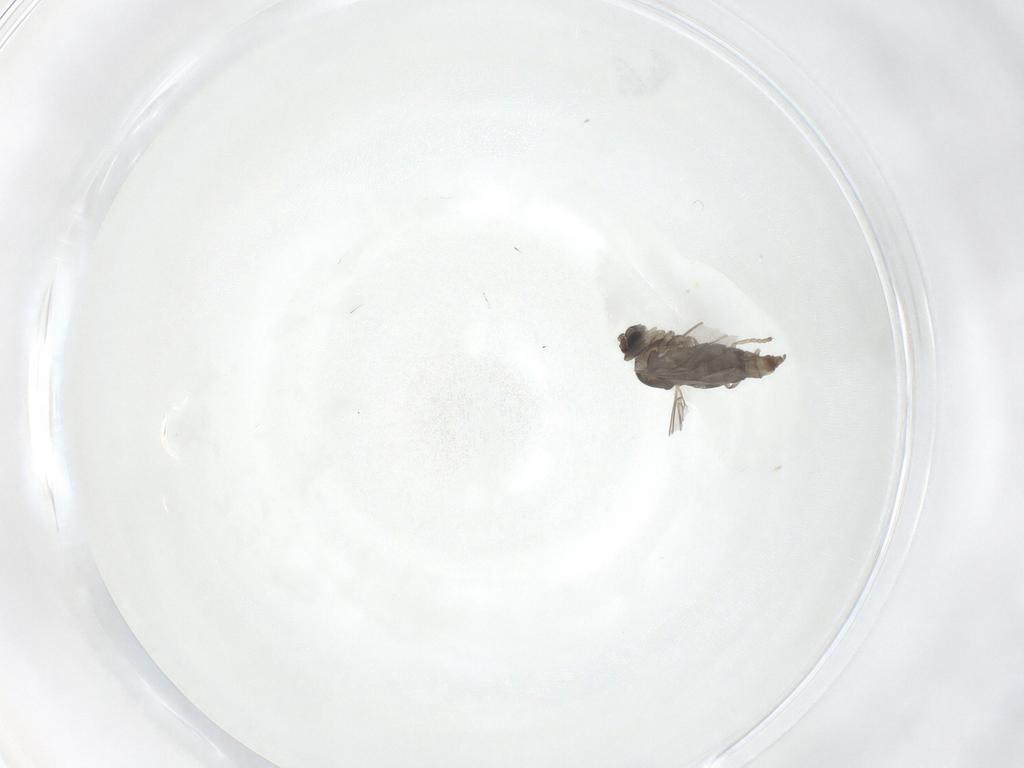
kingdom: Animalia
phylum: Arthropoda
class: Insecta
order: Diptera
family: Cecidomyiidae
